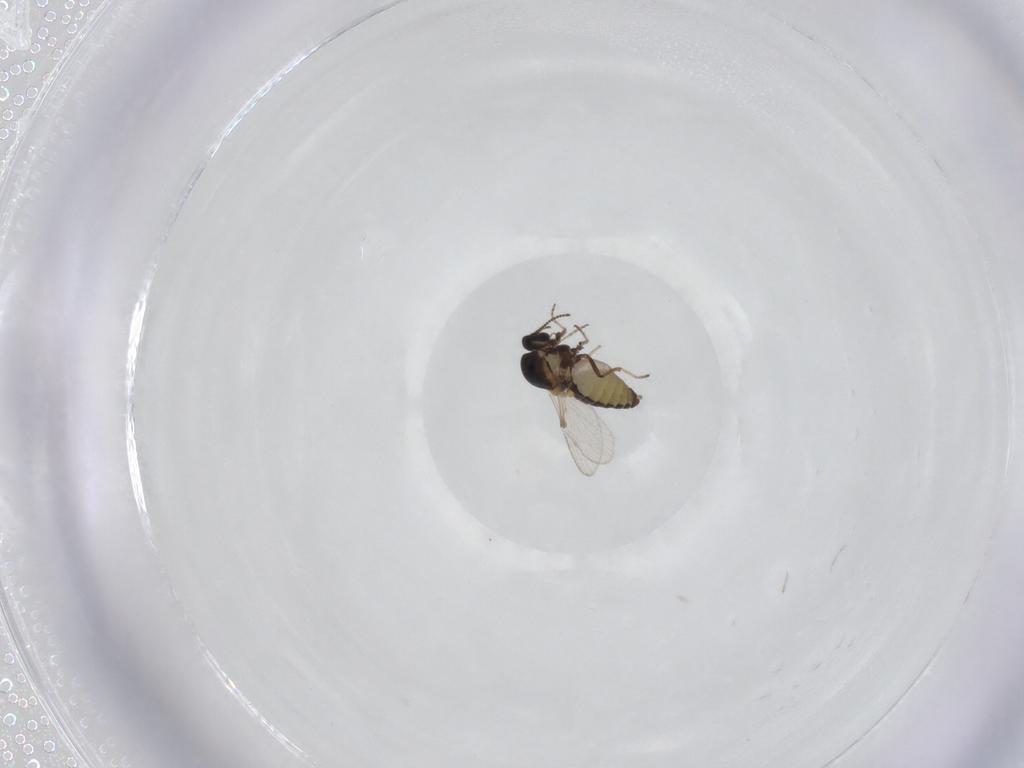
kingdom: Animalia
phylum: Arthropoda
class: Insecta
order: Diptera
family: Ceratopogonidae
